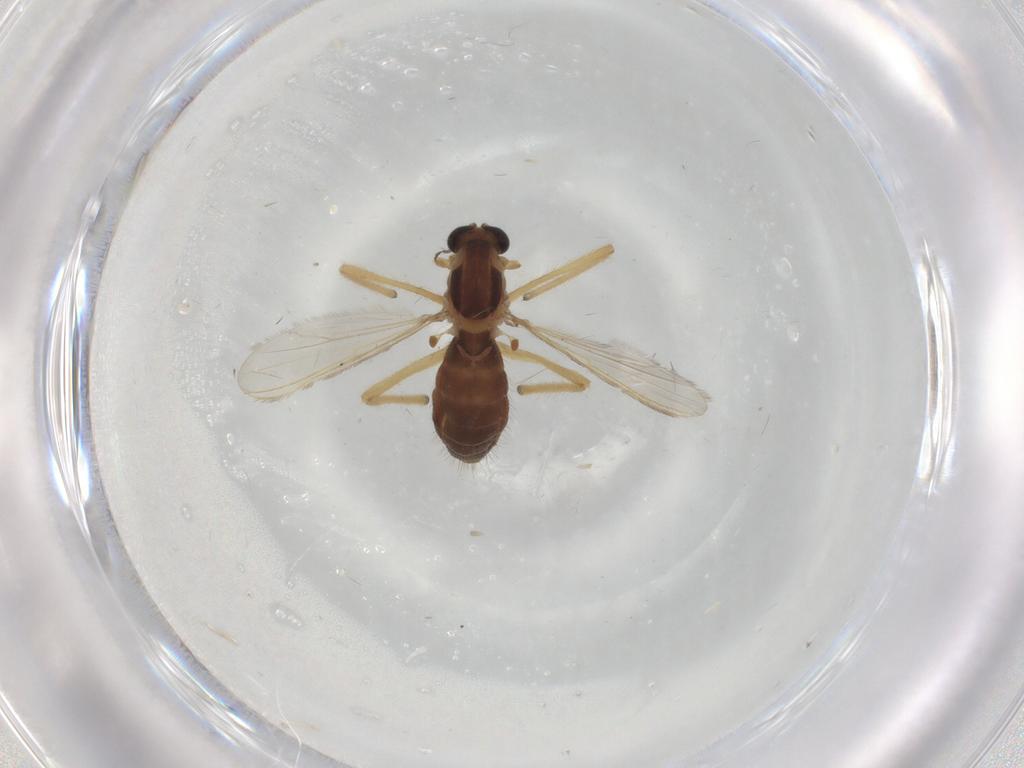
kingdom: Animalia
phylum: Arthropoda
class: Insecta
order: Diptera
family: Chironomidae
